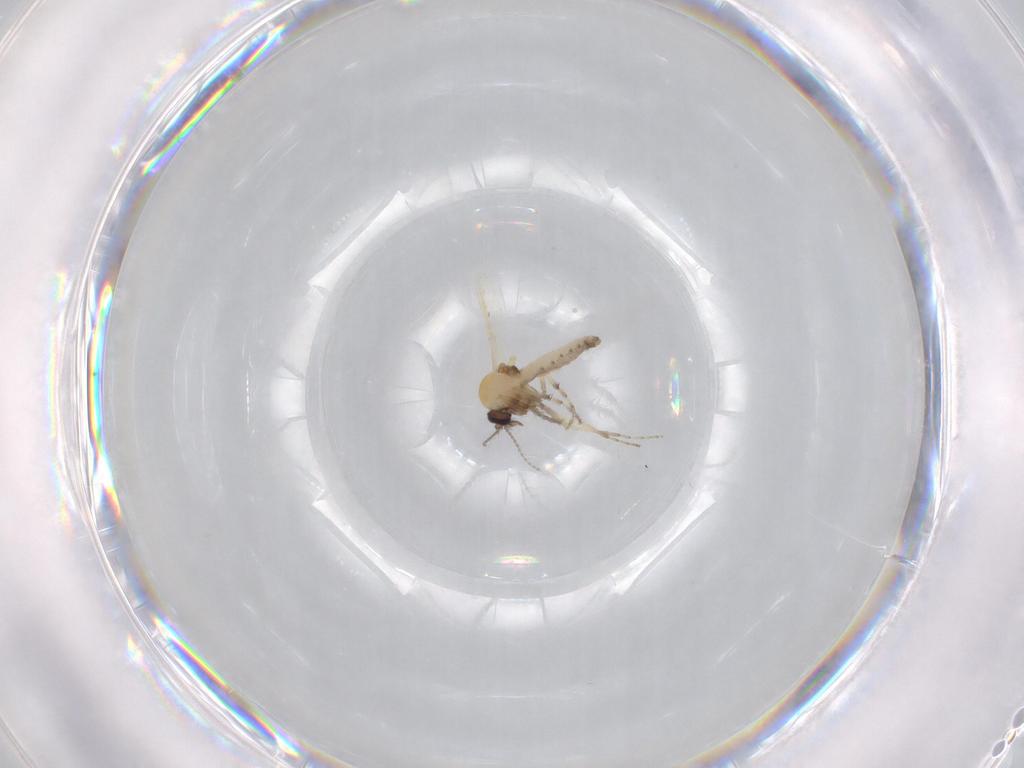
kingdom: Animalia
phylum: Arthropoda
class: Insecta
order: Diptera
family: Ceratopogonidae
